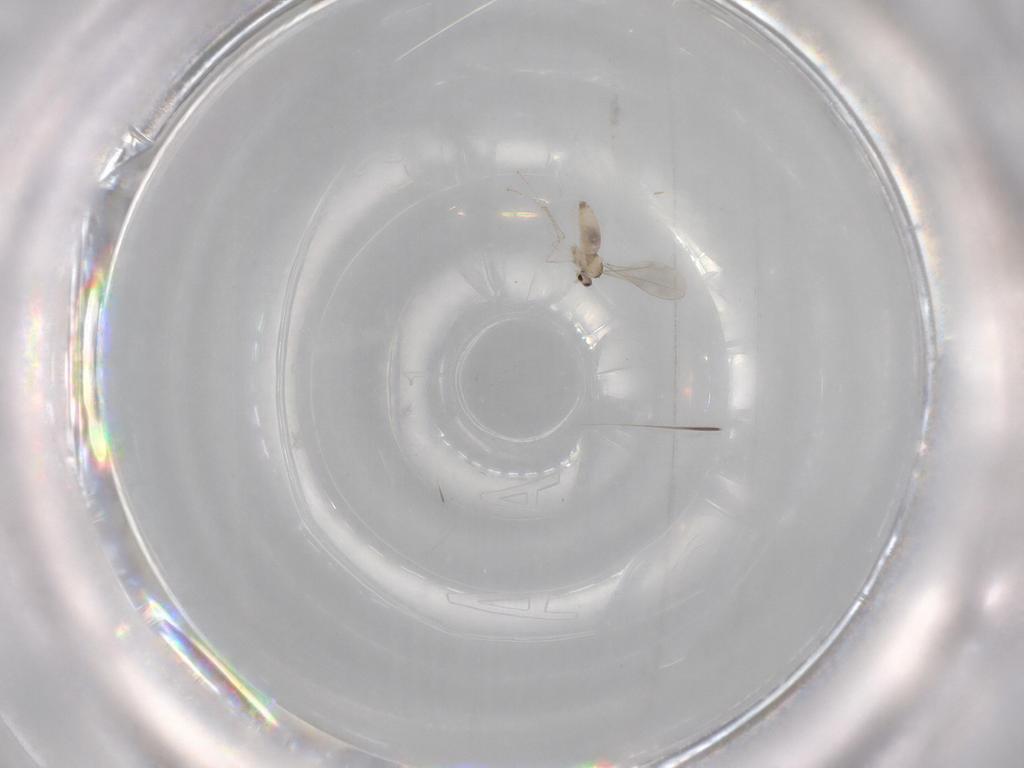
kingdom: Animalia
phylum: Arthropoda
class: Insecta
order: Diptera
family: Cecidomyiidae
